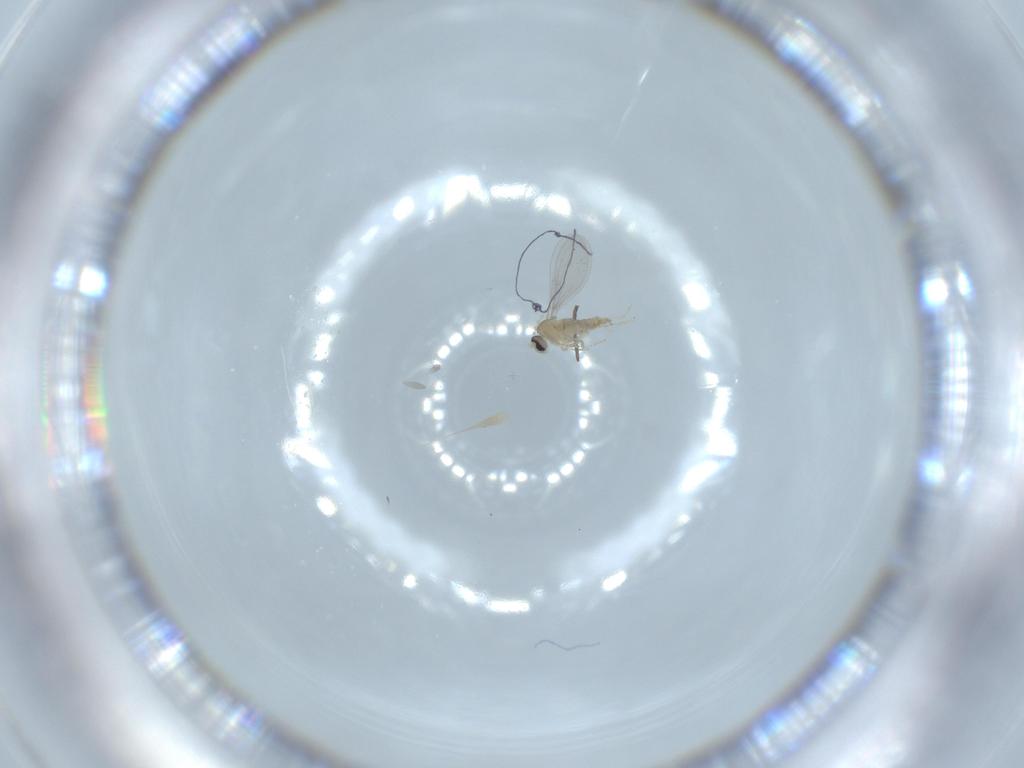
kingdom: Animalia
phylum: Arthropoda
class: Insecta
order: Diptera
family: Cecidomyiidae
